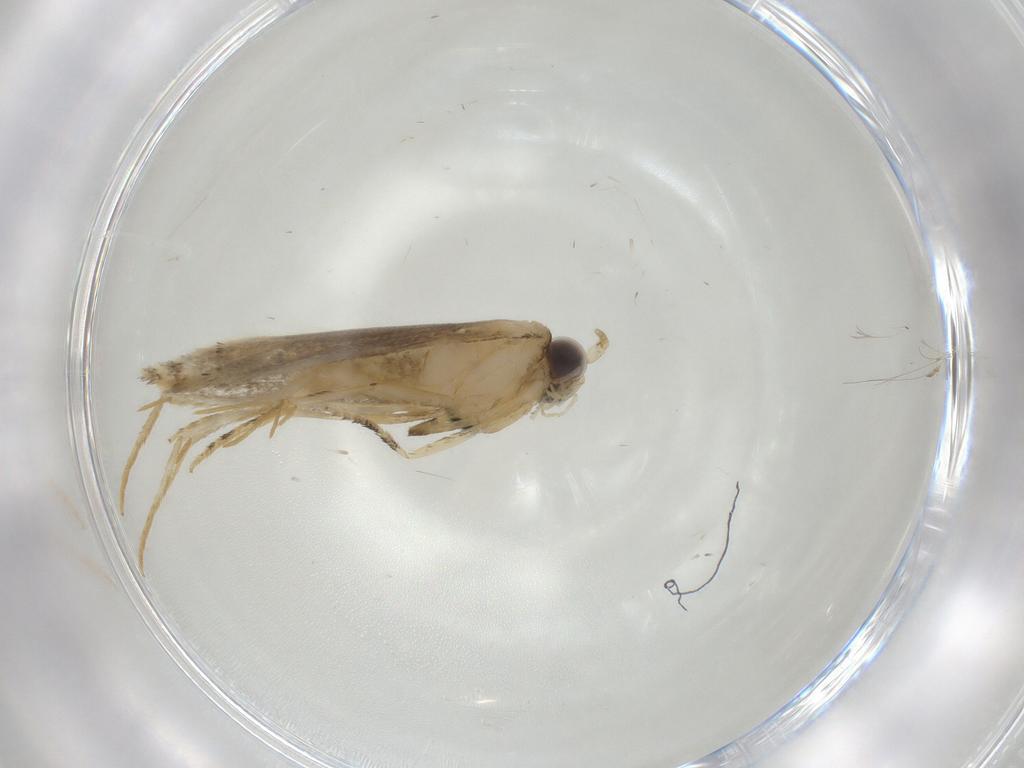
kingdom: Animalia
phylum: Arthropoda
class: Insecta
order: Lepidoptera
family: Tineidae
